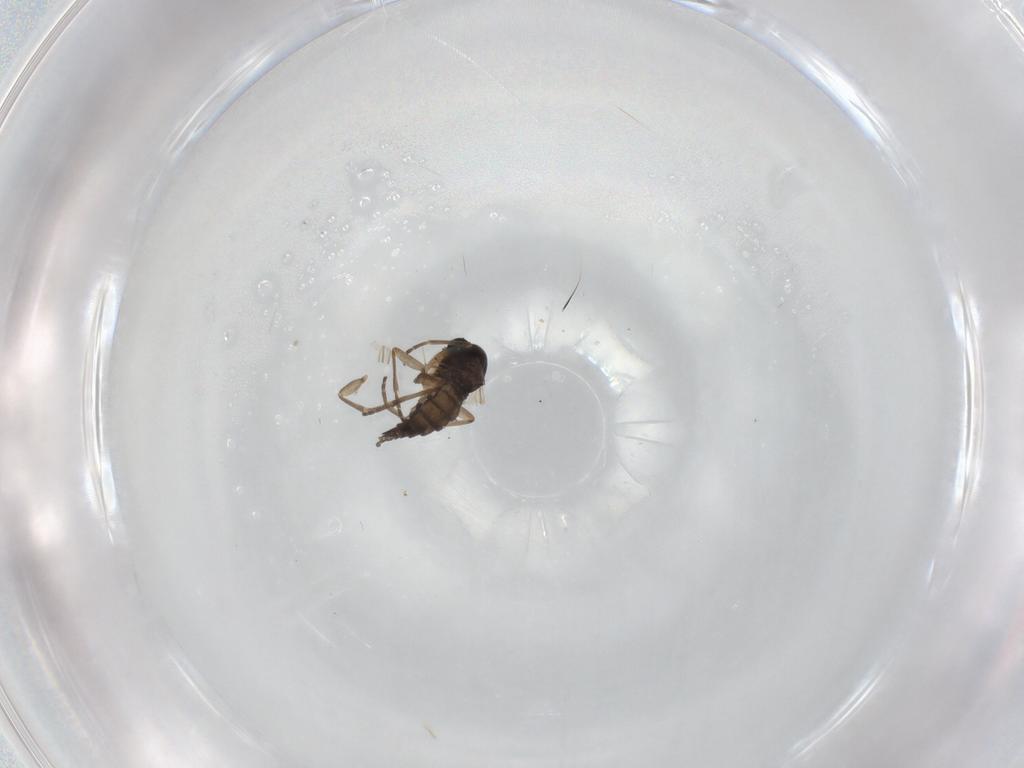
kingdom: Animalia
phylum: Arthropoda
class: Insecta
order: Diptera
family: Sciaridae
